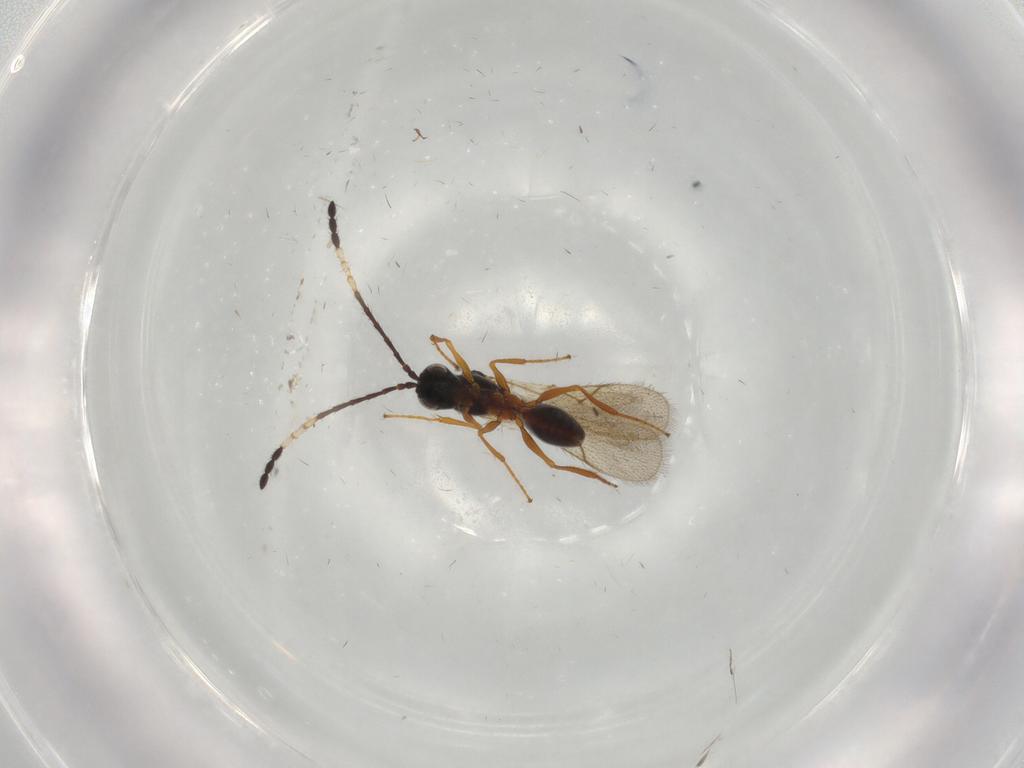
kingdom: Animalia
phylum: Arthropoda
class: Insecta
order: Hymenoptera
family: Figitidae
